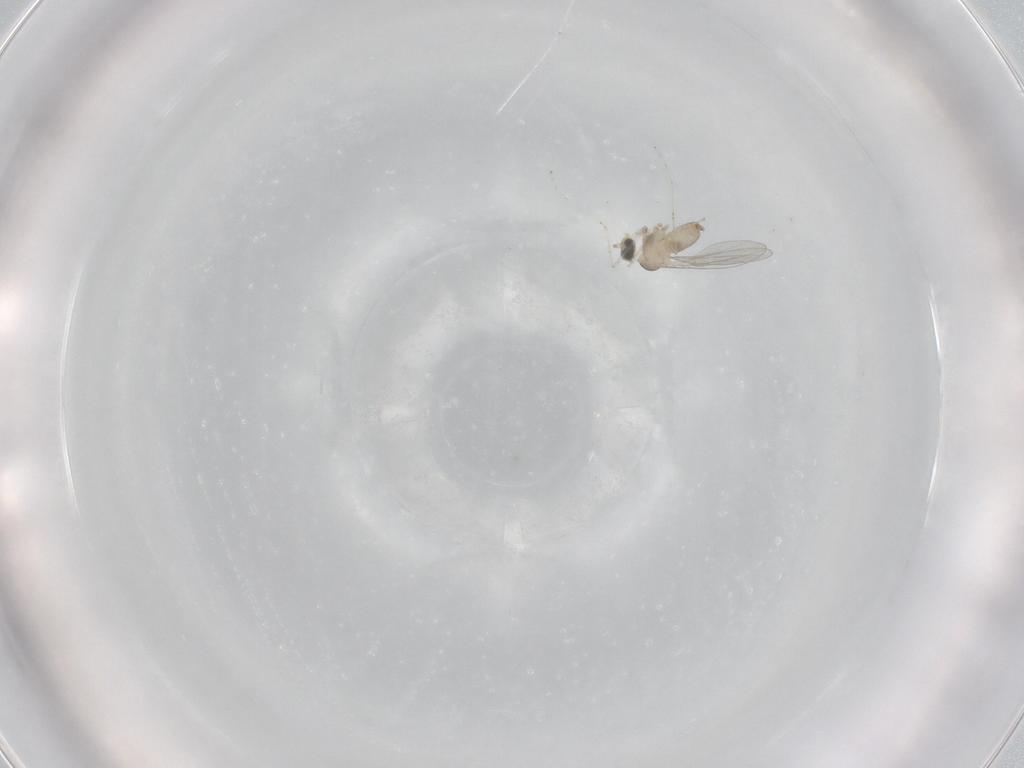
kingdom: Animalia
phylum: Arthropoda
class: Insecta
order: Diptera
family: Cecidomyiidae
